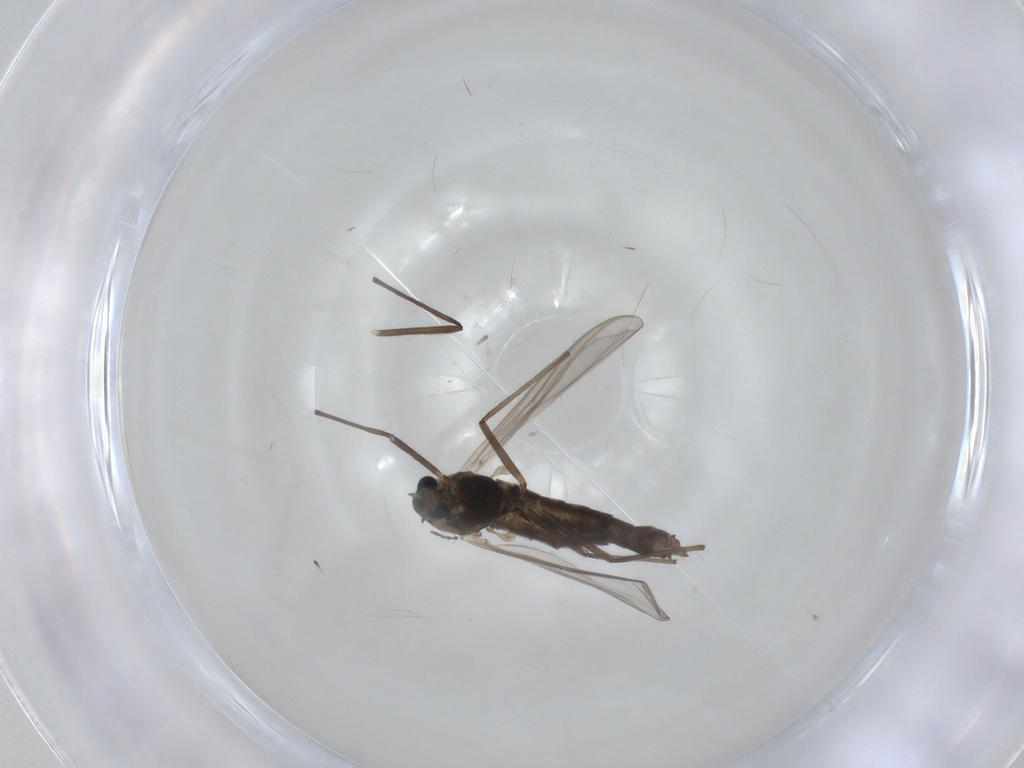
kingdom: Animalia
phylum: Arthropoda
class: Insecta
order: Diptera
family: Chironomidae
